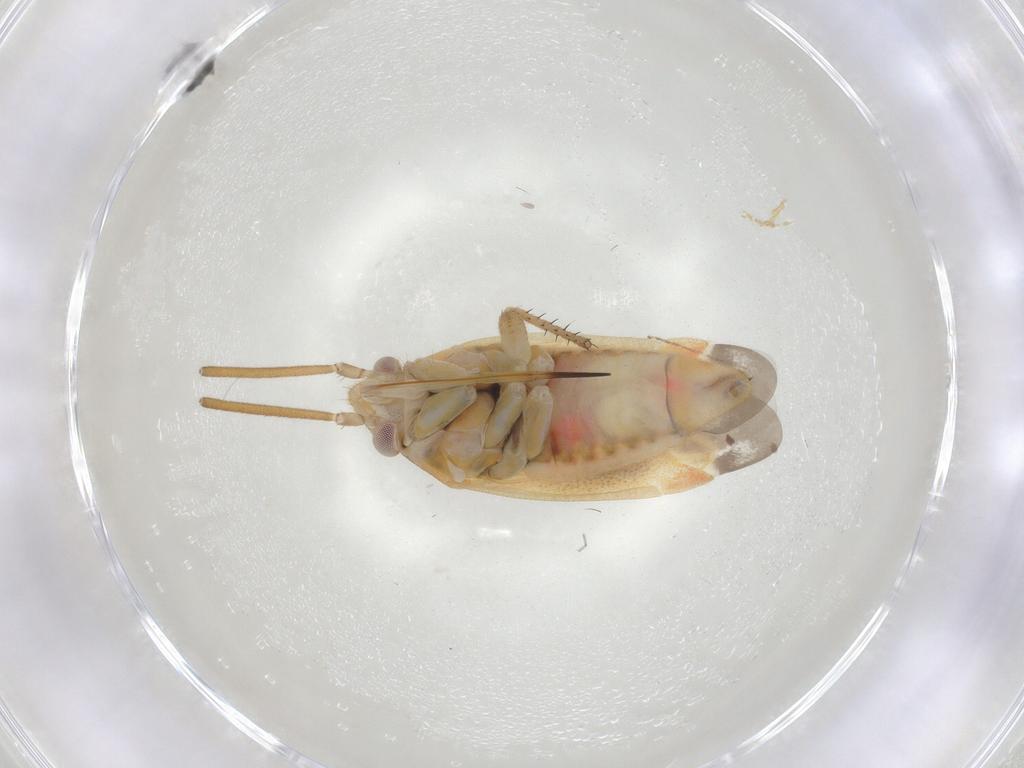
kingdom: Animalia
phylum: Arthropoda
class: Insecta
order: Hemiptera
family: Miridae
